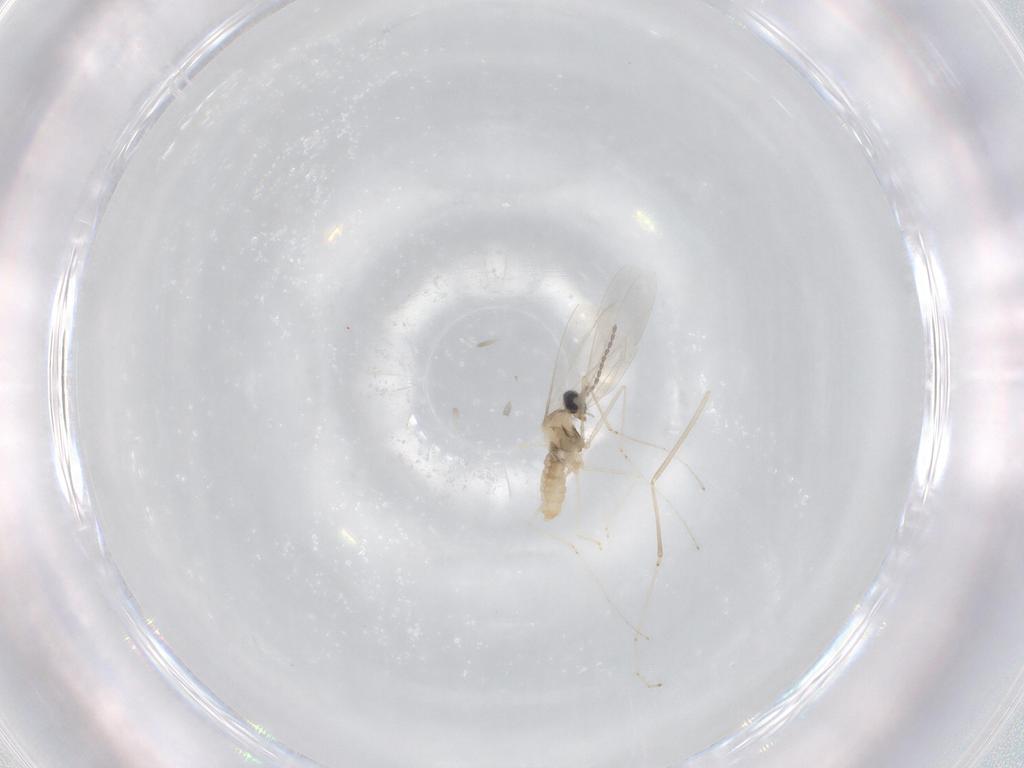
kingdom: Animalia
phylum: Arthropoda
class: Insecta
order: Diptera
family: Cecidomyiidae
